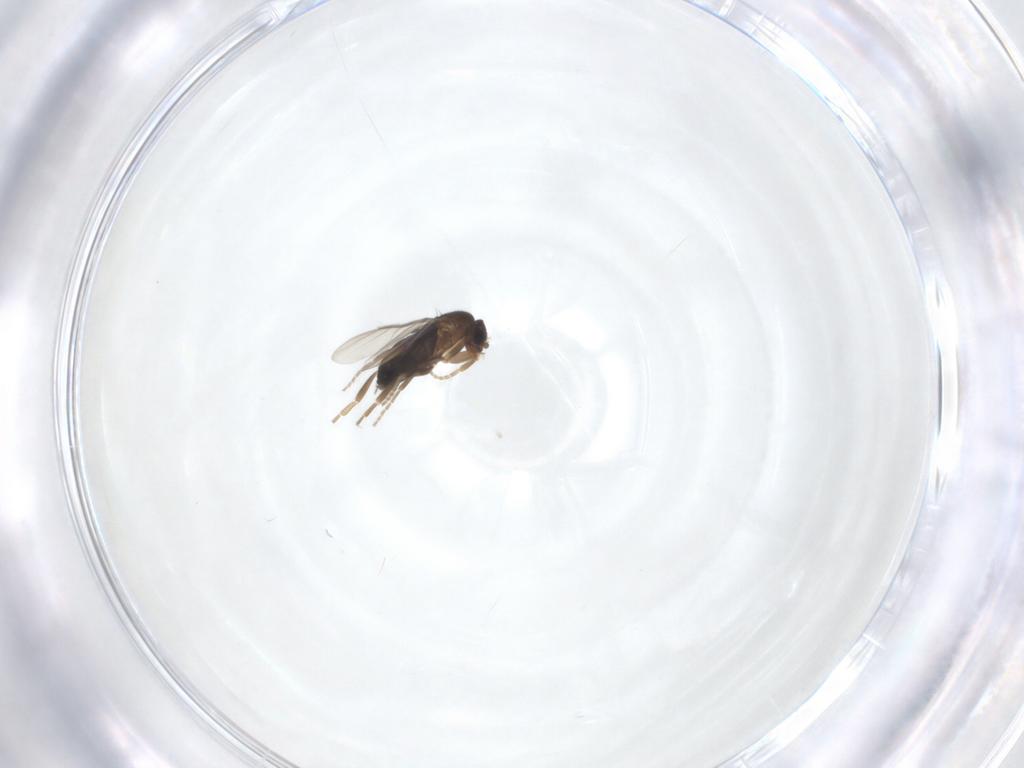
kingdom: Animalia
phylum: Arthropoda
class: Insecta
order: Diptera
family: Phoridae
